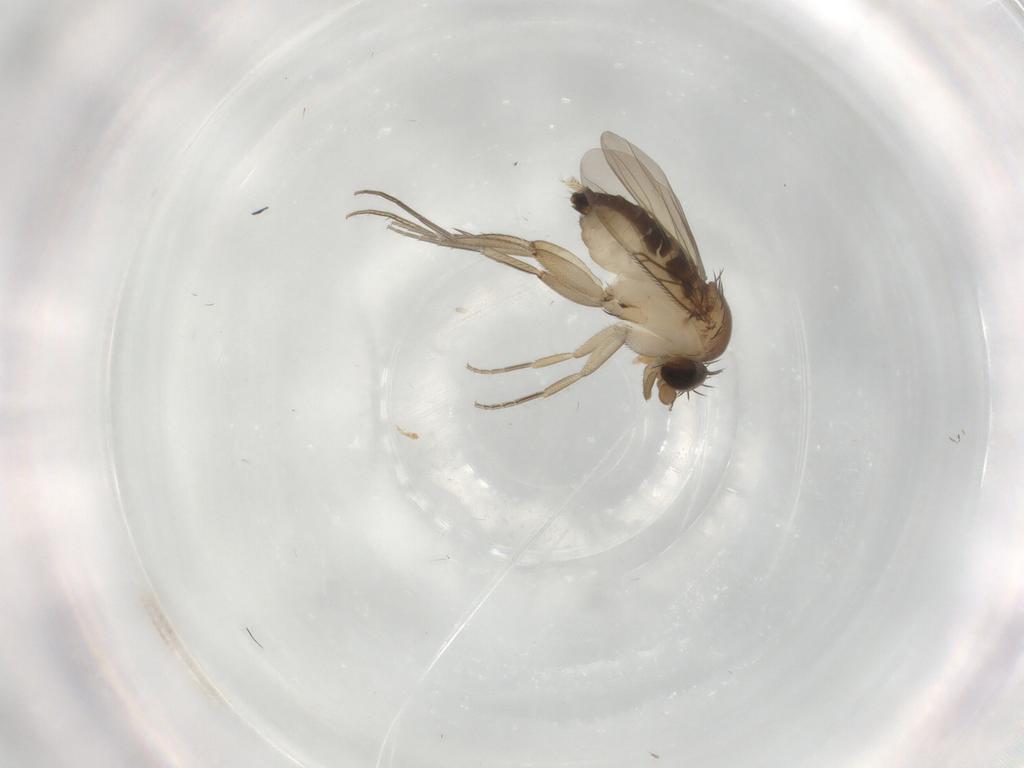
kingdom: Animalia
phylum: Arthropoda
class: Insecta
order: Diptera
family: Phoridae
